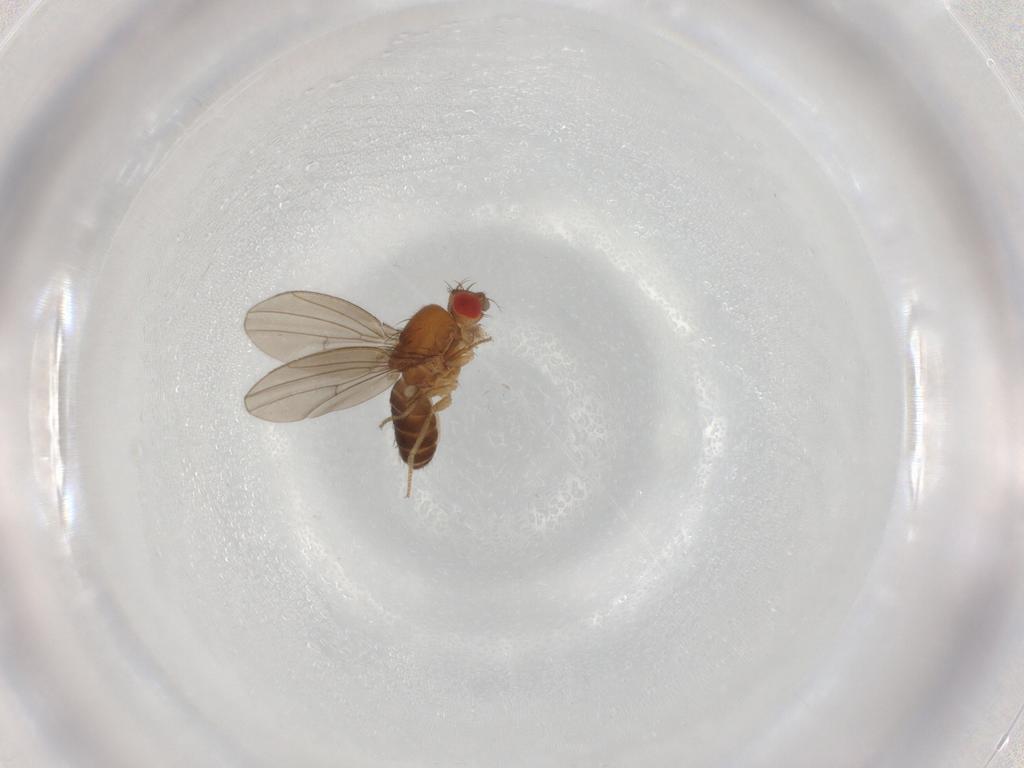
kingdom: Animalia
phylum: Arthropoda
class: Insecta
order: Diptera
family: Drosophilidae
